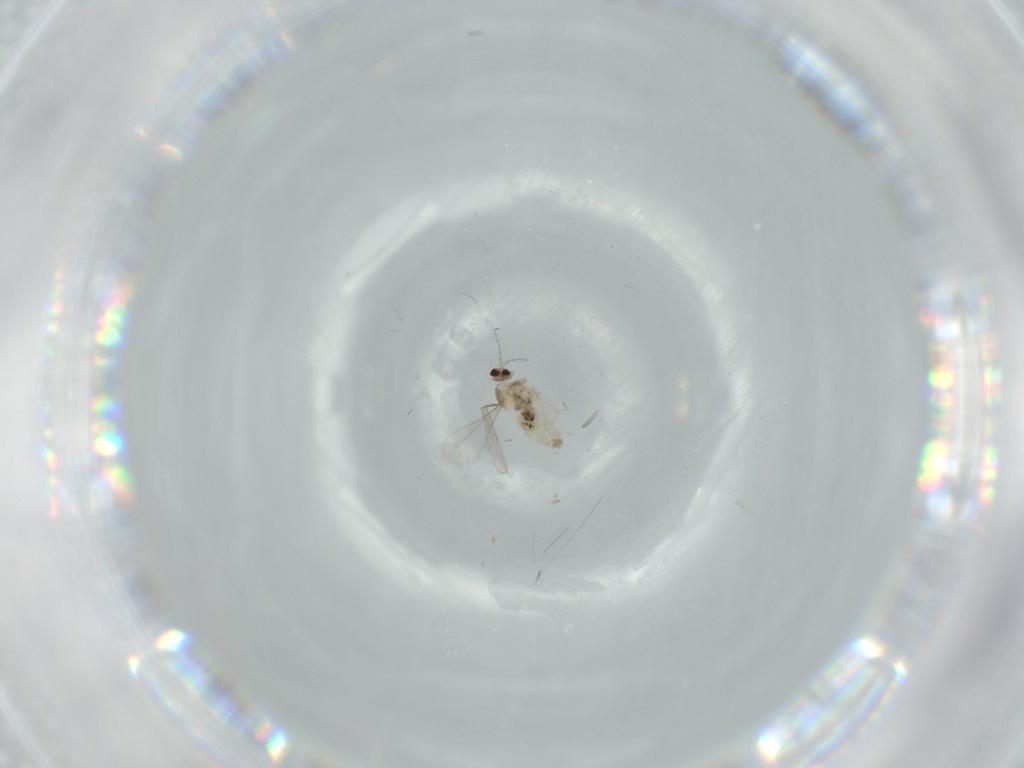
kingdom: Animalia
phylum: Arthropoda
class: Insecta
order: Diptera
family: Cecidomyiidae
